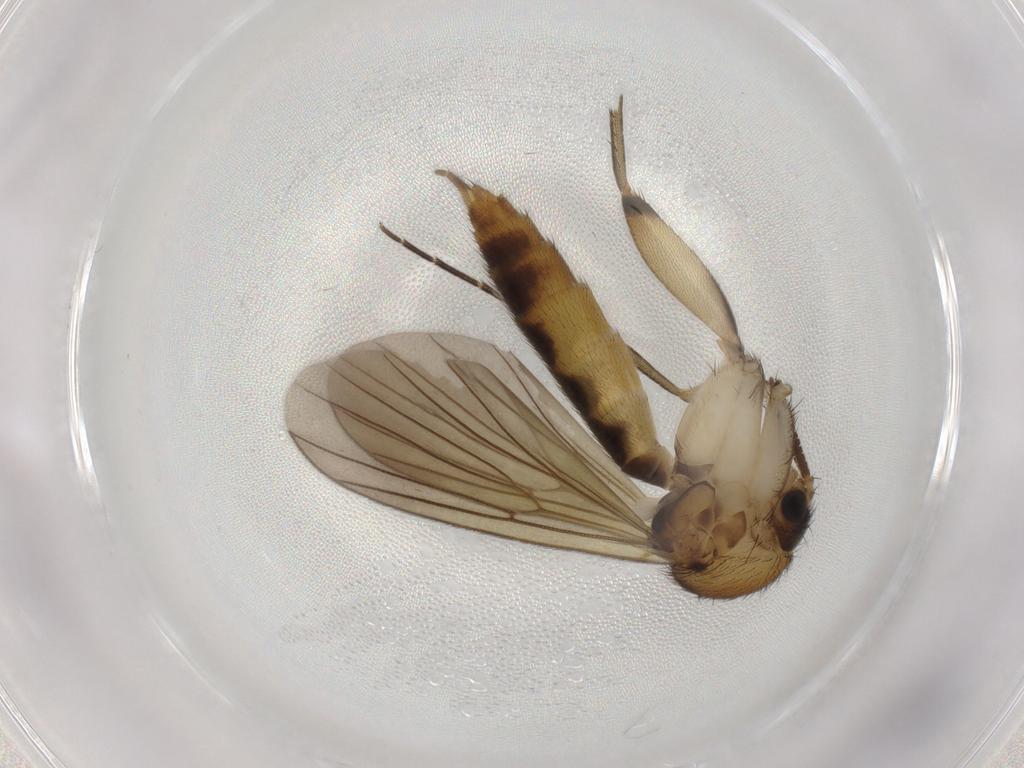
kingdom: Animalia
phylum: Arthropoda
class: Insecta
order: Diptera
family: Mycetophilidae
